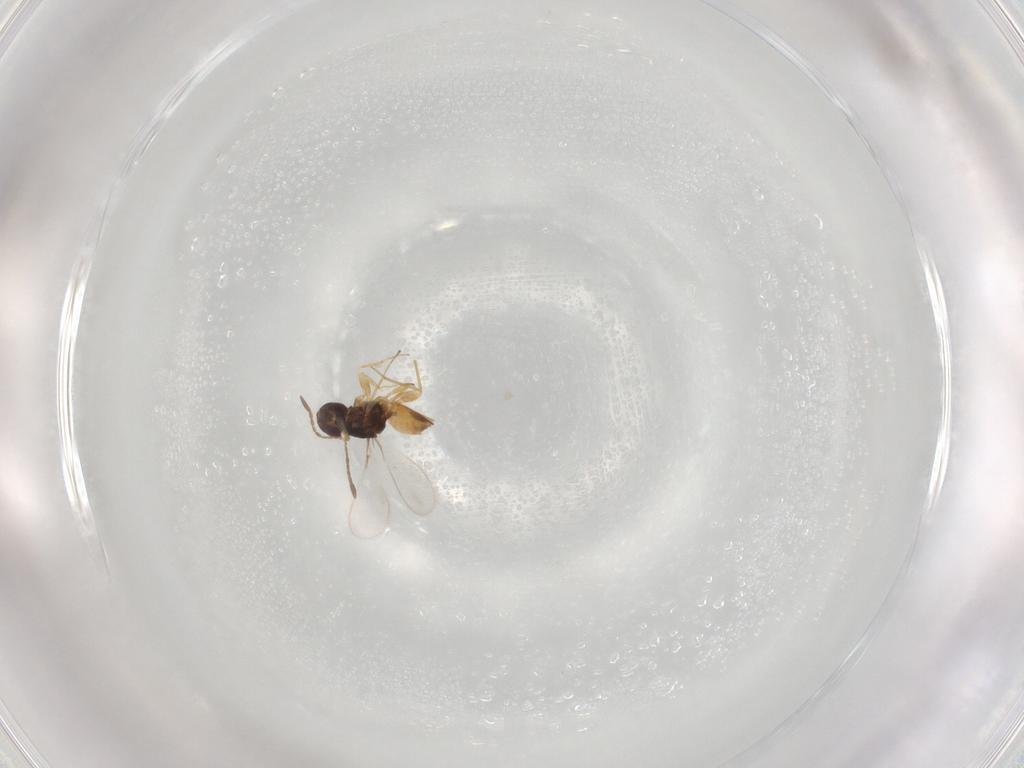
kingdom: Animalia
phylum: Arthropoda
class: Insecta
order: Hymenoptera
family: Mymaridae
